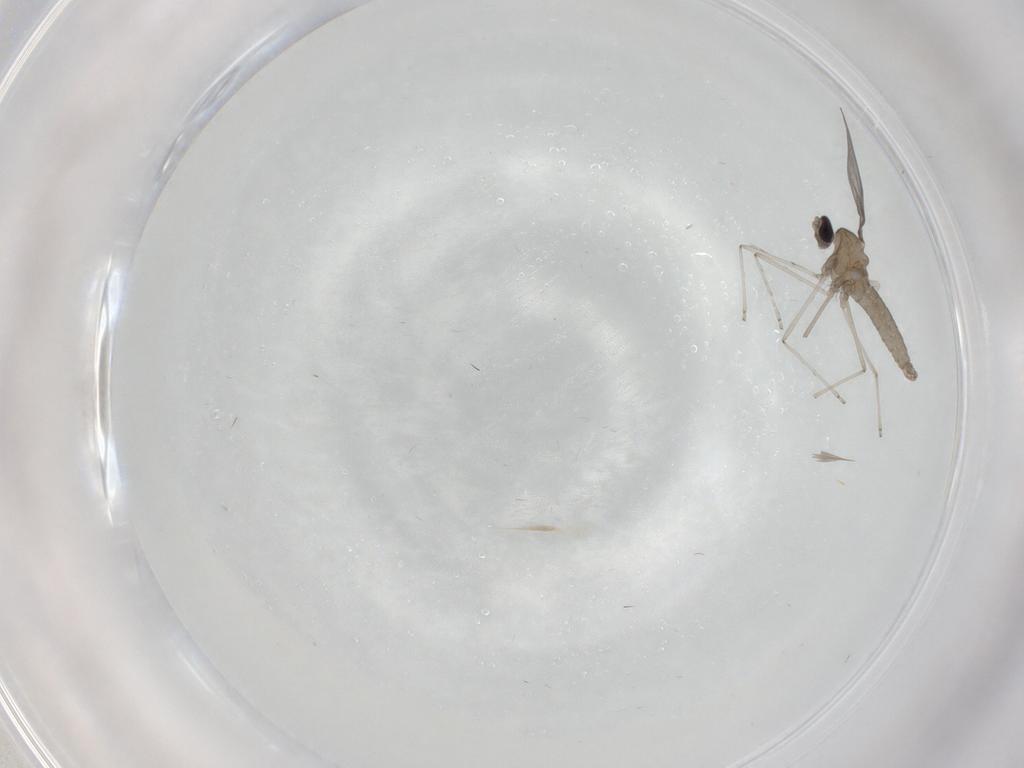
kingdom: Animalia
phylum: Arthropoda
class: Insecta
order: Diptera
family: Cecidomyiidae
